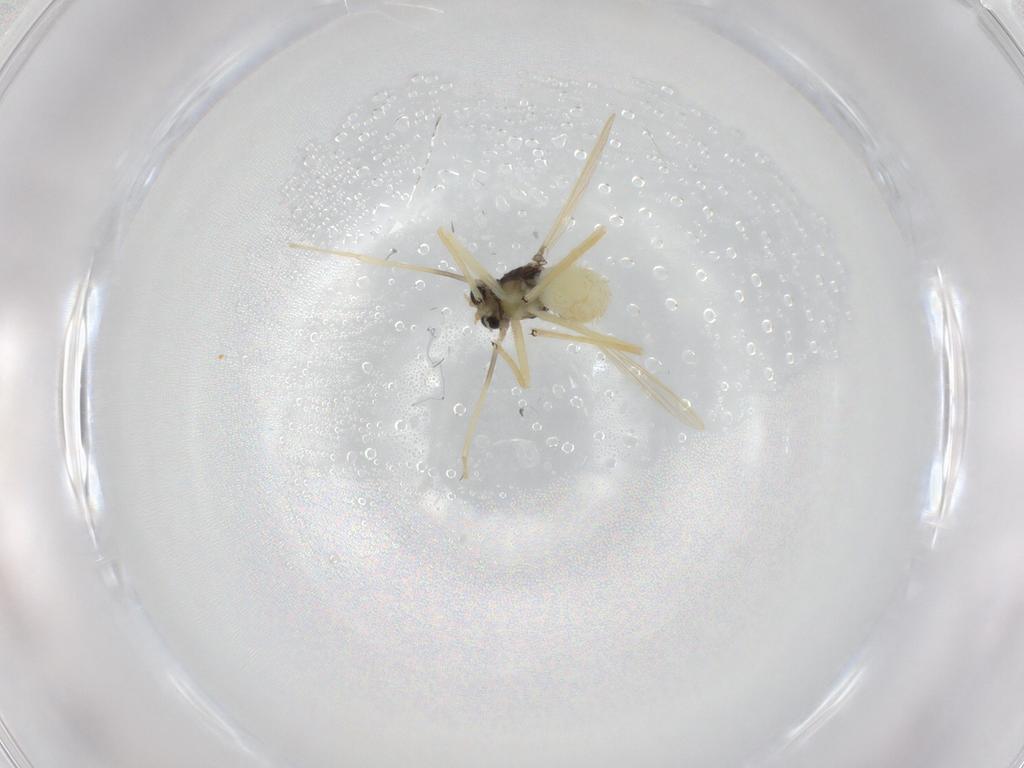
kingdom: Animalia
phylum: Arthropoda
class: Insecta
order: Diptera
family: Chironomidae
